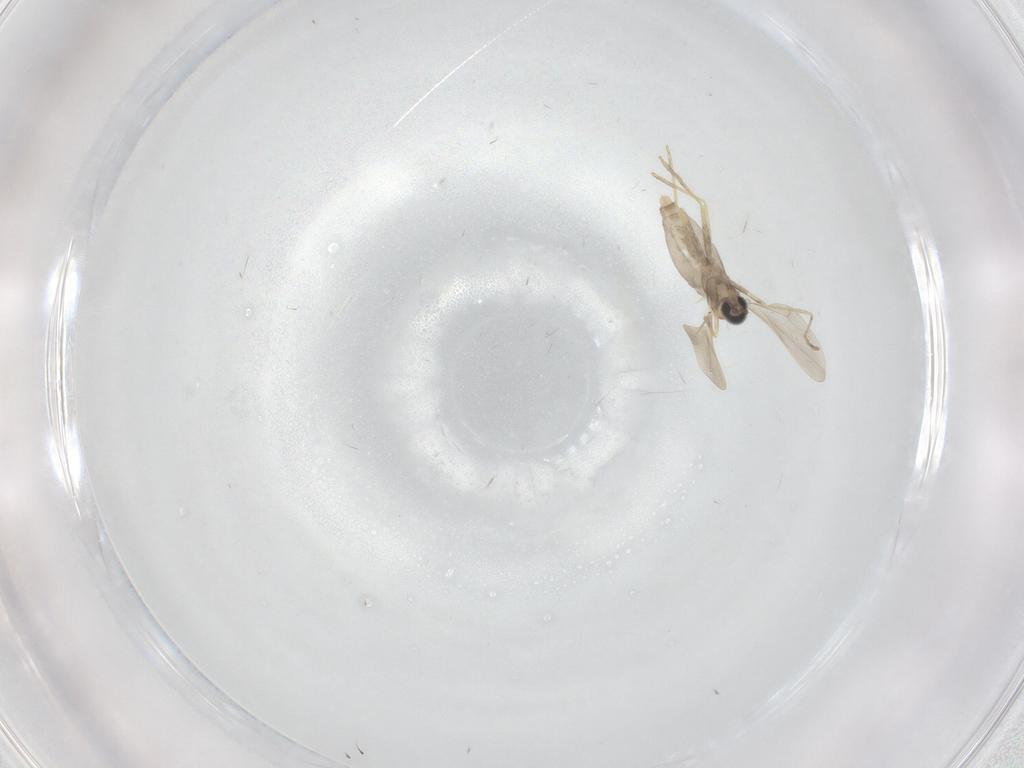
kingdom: Animalia
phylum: Arthropoda
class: Insecta
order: Diptera
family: Cecidomyiidae
